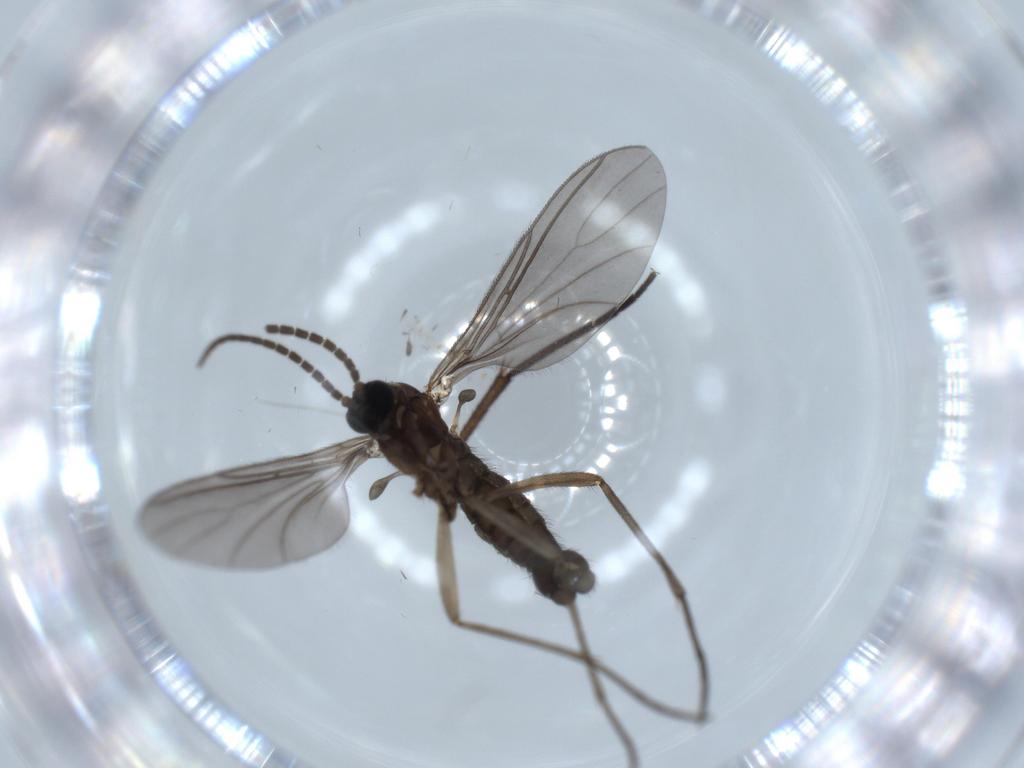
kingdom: Animalia
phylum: Arthropoda
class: Insecta
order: Diptera
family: Sciaridae
